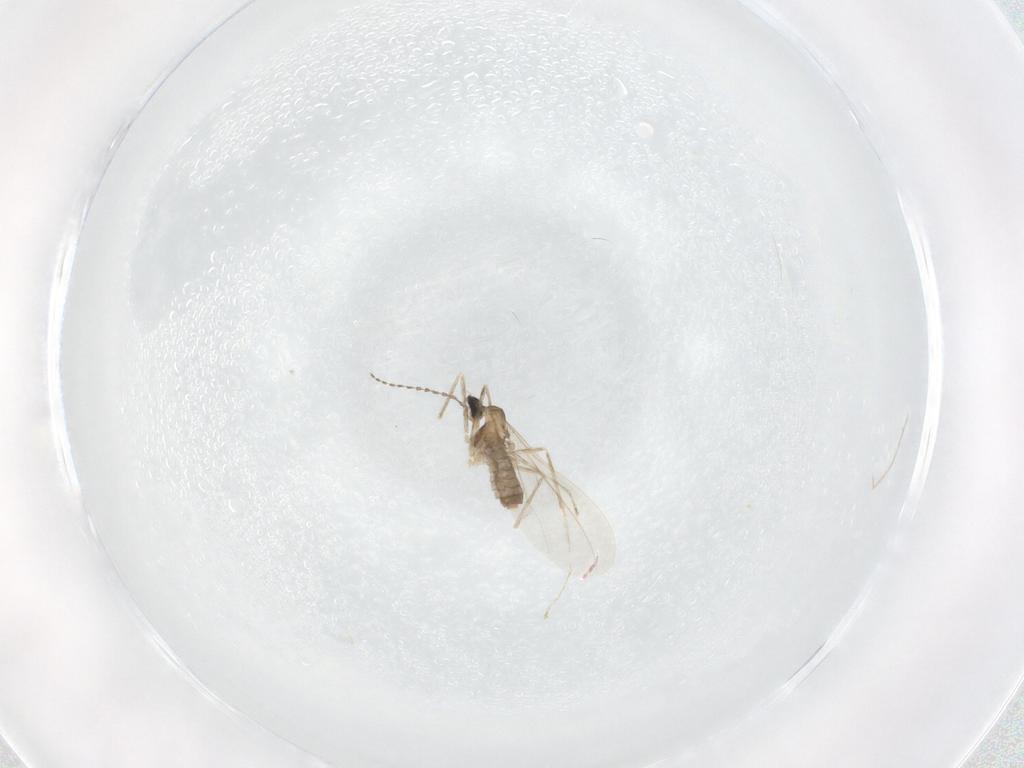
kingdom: Animalia
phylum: Arthropoda
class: Insecta
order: Diptera
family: Cecidomyiidae
